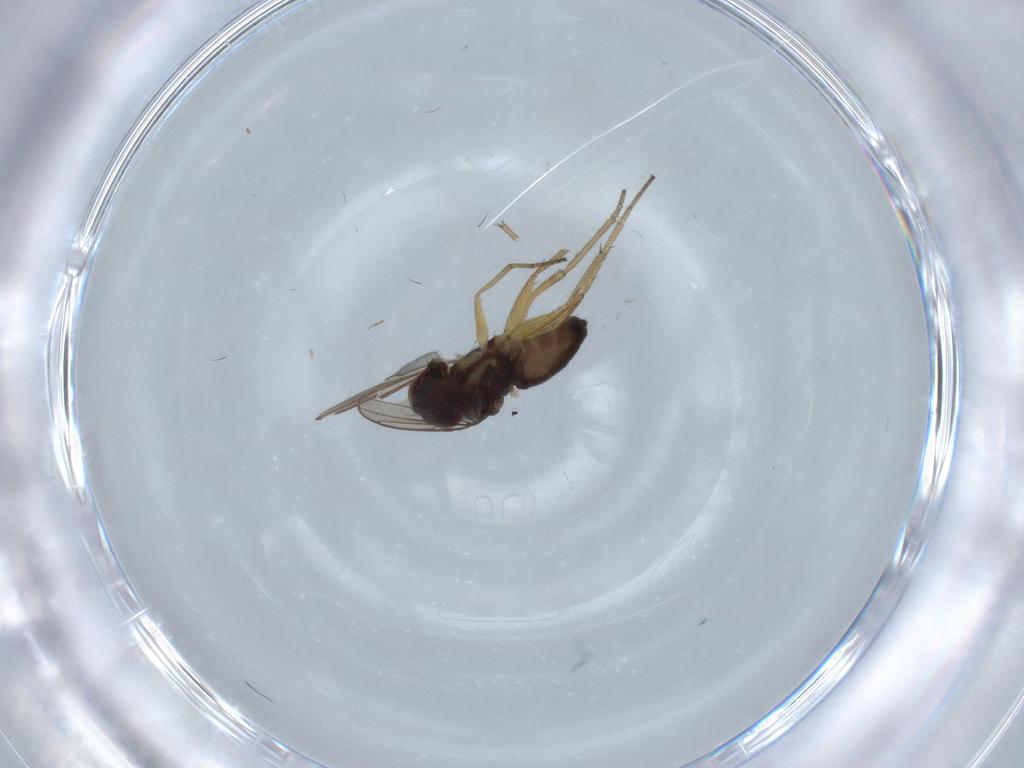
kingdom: Animalia
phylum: Arthropoda
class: Insecta
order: Diptera
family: Dolichopodidae
